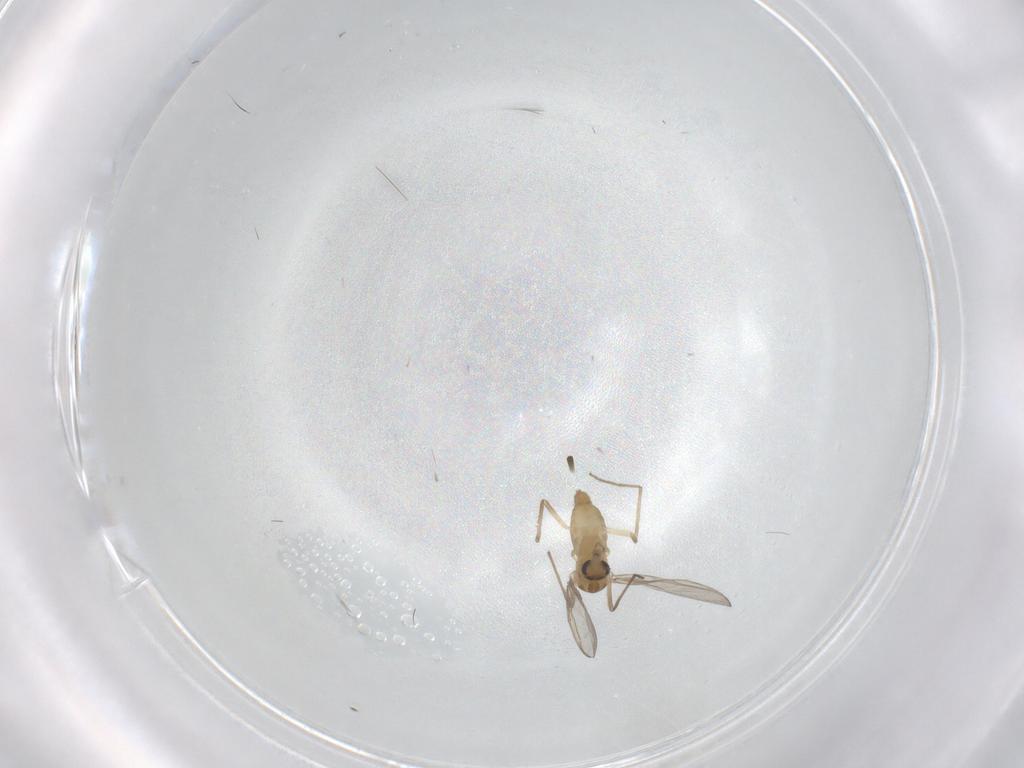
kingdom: Animalia
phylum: Arthropoda
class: Insecta
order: Diptera
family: Chironomidae
